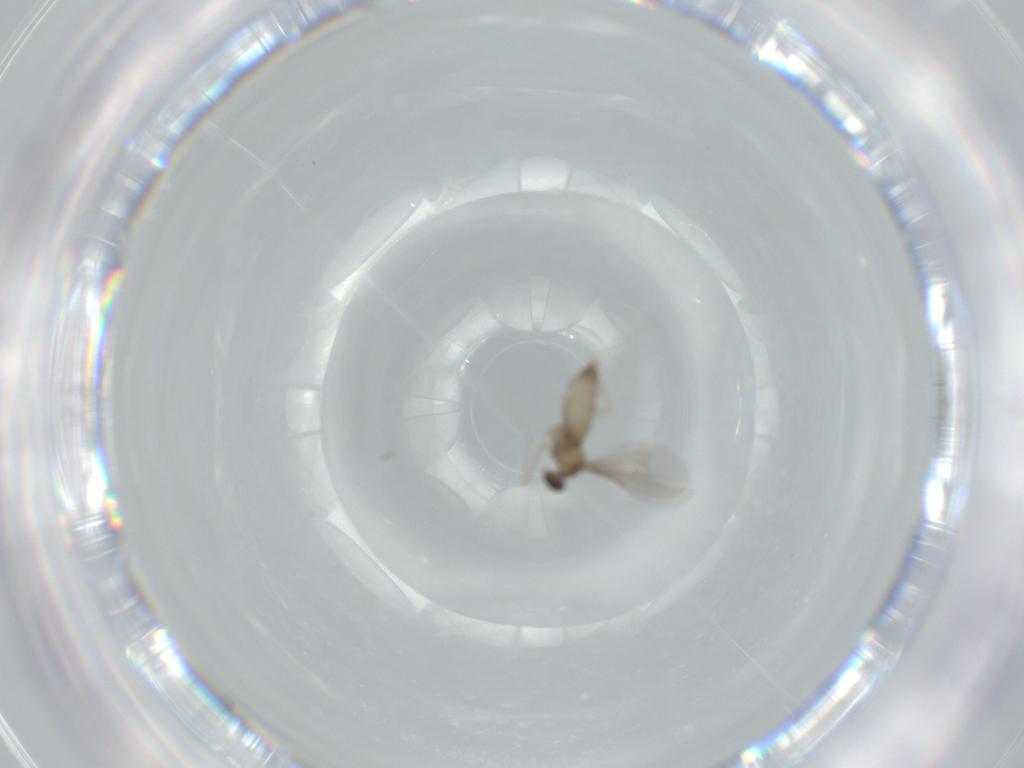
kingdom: Animalia
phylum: Arthropoda
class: Insecta
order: Diptera
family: Cecidomyiidae
